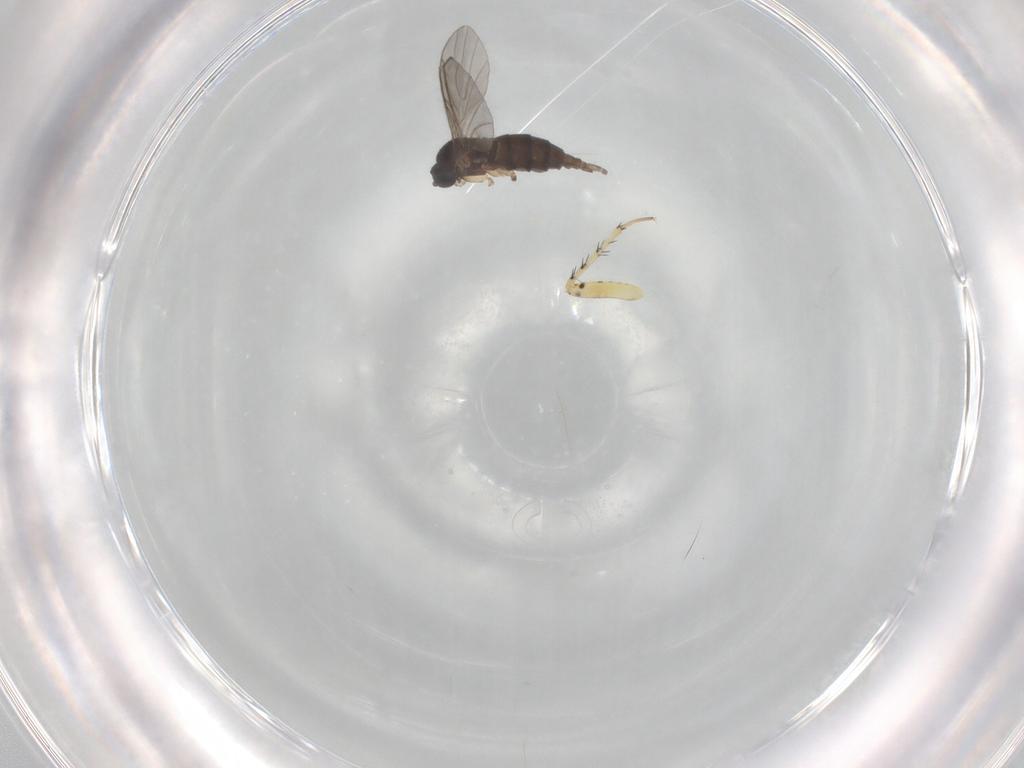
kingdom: Animalia
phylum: Arthropoda
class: Insecta
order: Diptera
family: Sciaridae
